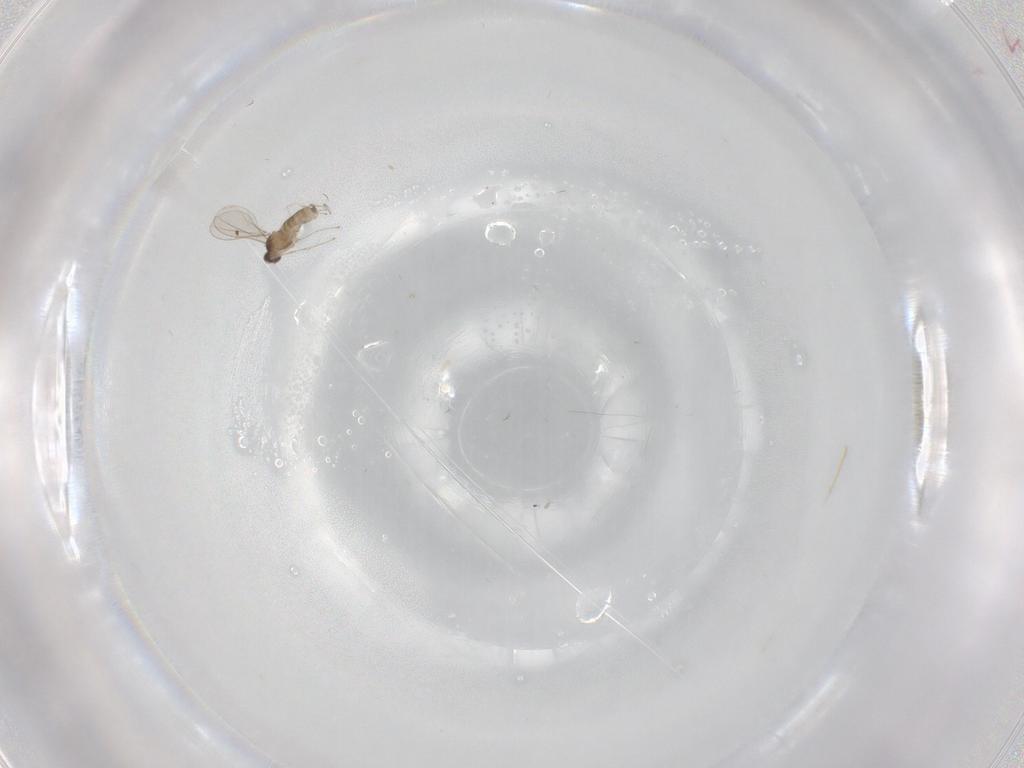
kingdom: Animalia
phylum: Arthropoda
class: Insecta
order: Diptera
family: Cecidomyiidae
